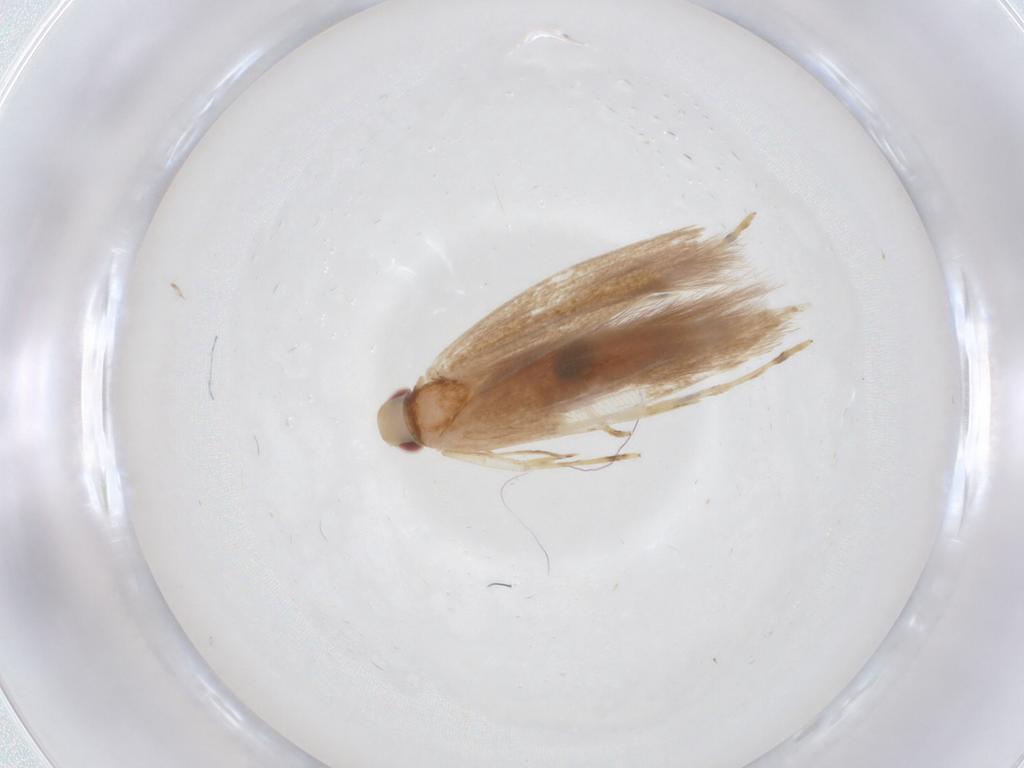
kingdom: Animalia
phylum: Arthropoda
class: Insecta
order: Lepidoptera
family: Cosmopterigidae
